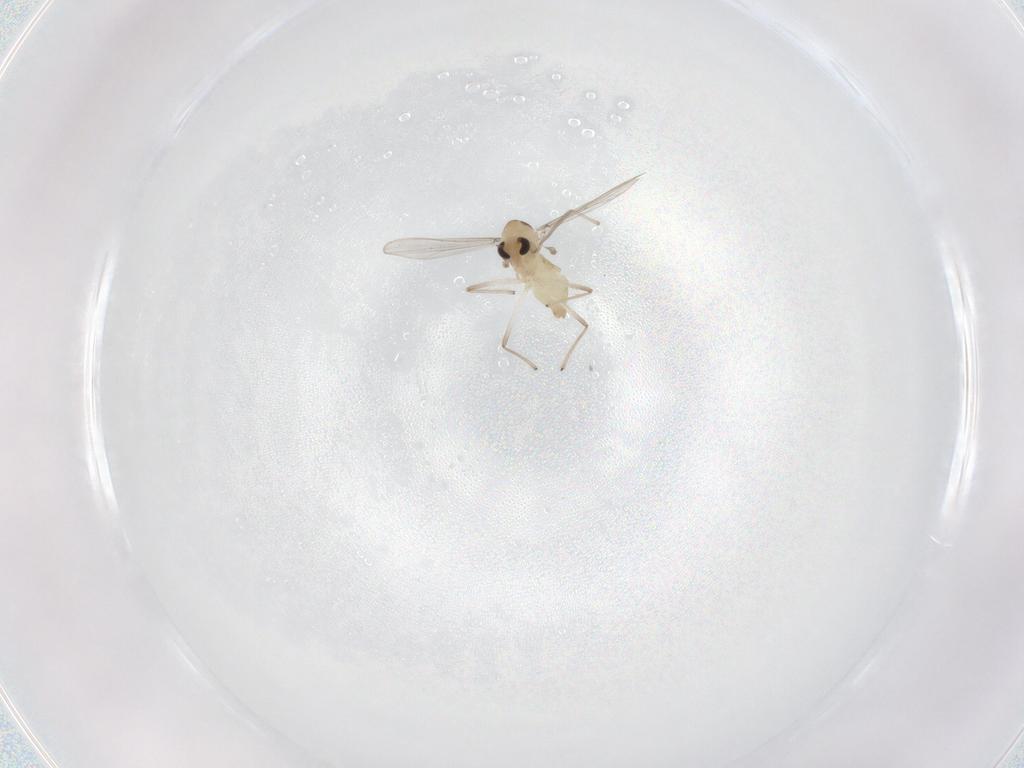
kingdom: Animalia
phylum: Arthropoda
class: Insecta
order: Diptera
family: Chironomidae
